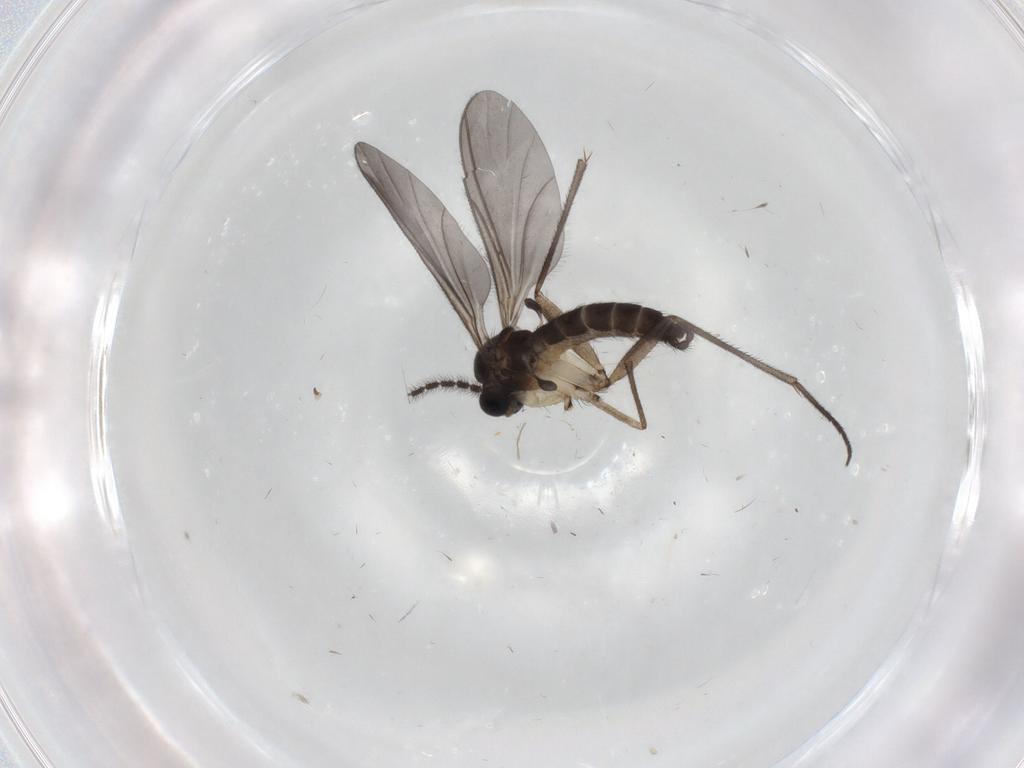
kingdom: Animalia
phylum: Arthropoda
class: Insecta
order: Diptera
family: Sciaridae
